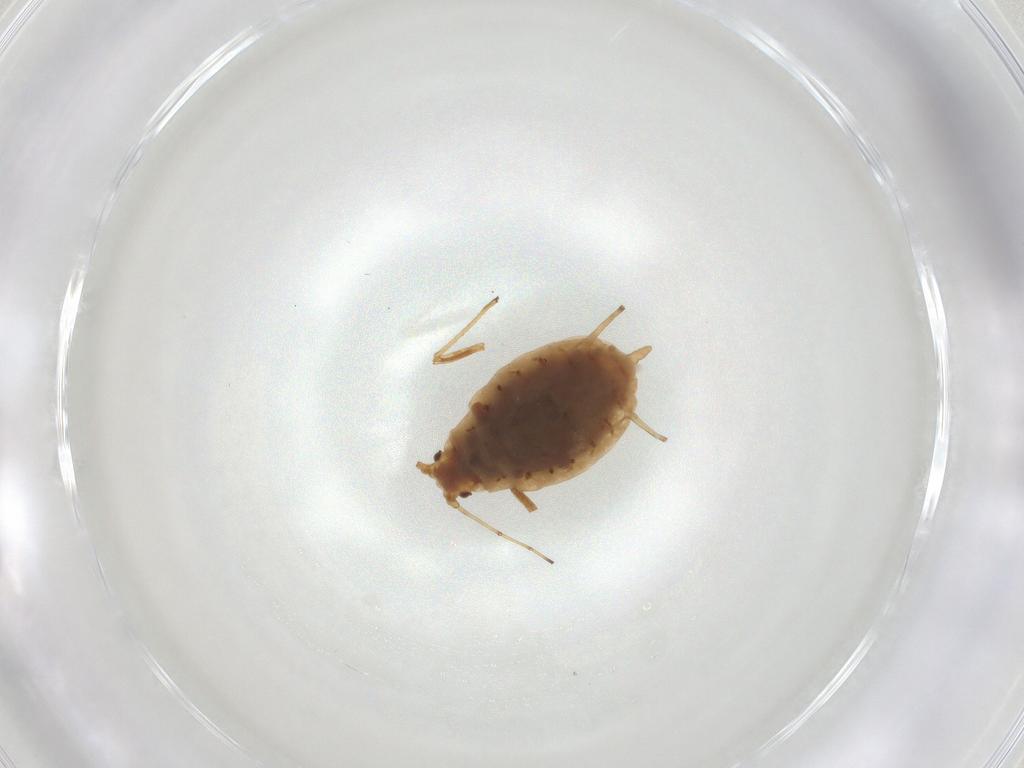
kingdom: Animalia
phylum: Arthropoda
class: Insecta
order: Hemiptera
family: Aphididae
